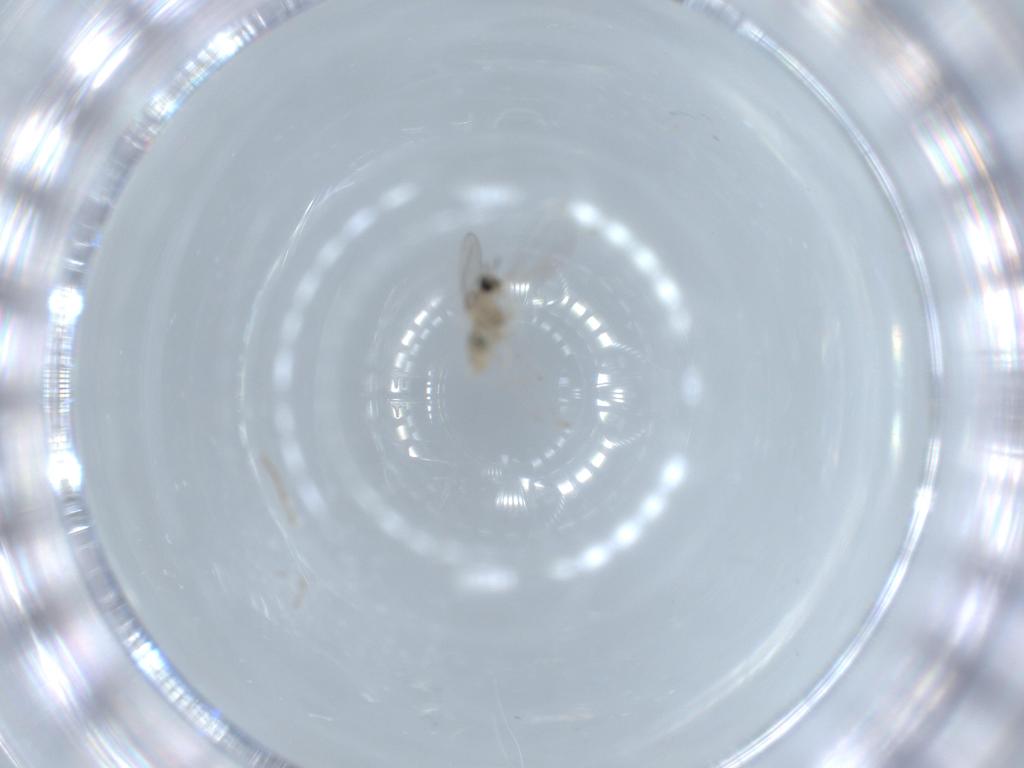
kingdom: Animalia
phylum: Arthropoda
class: Insecta
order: Diptera
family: Cecidomyiidae
